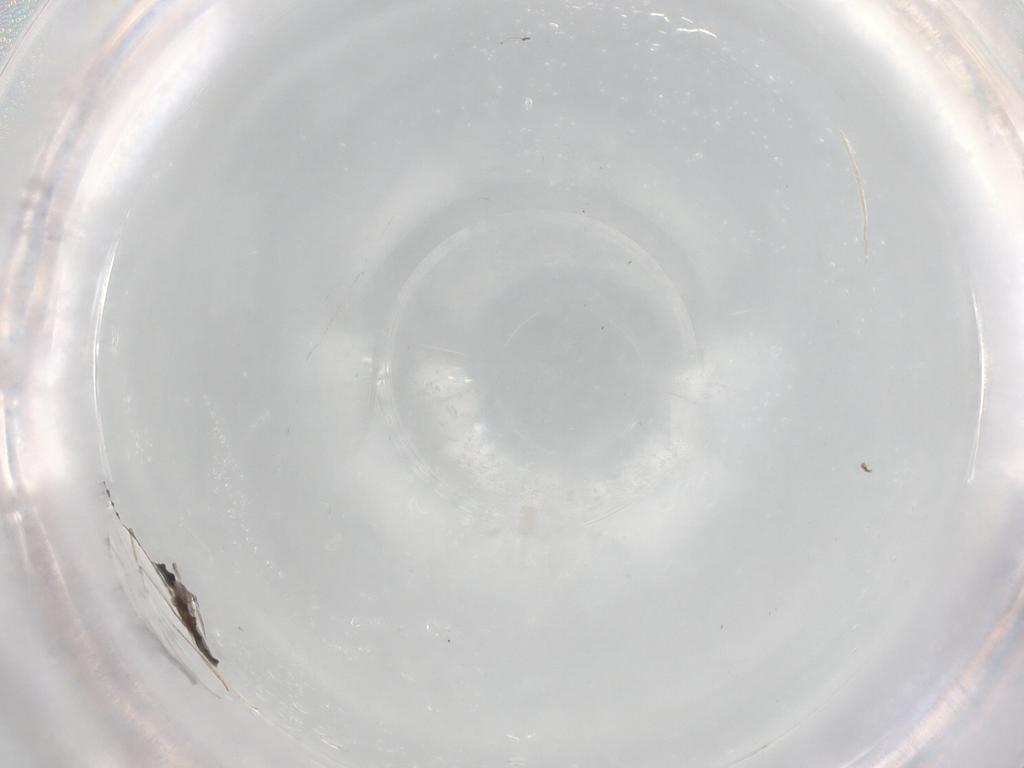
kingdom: Animalia
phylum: Arthropoda
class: Insecta
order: Diptera
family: Cecidomyiidae
